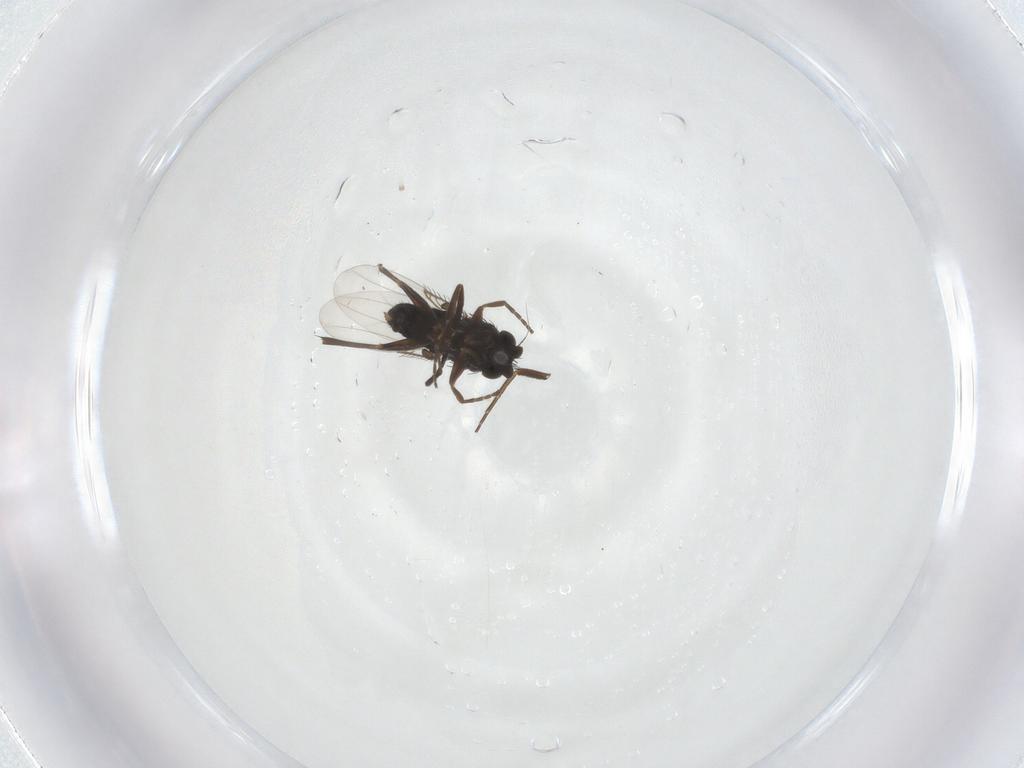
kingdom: Animalia
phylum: Arthropoda
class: Insecta
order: Diptera
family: Phoridae
